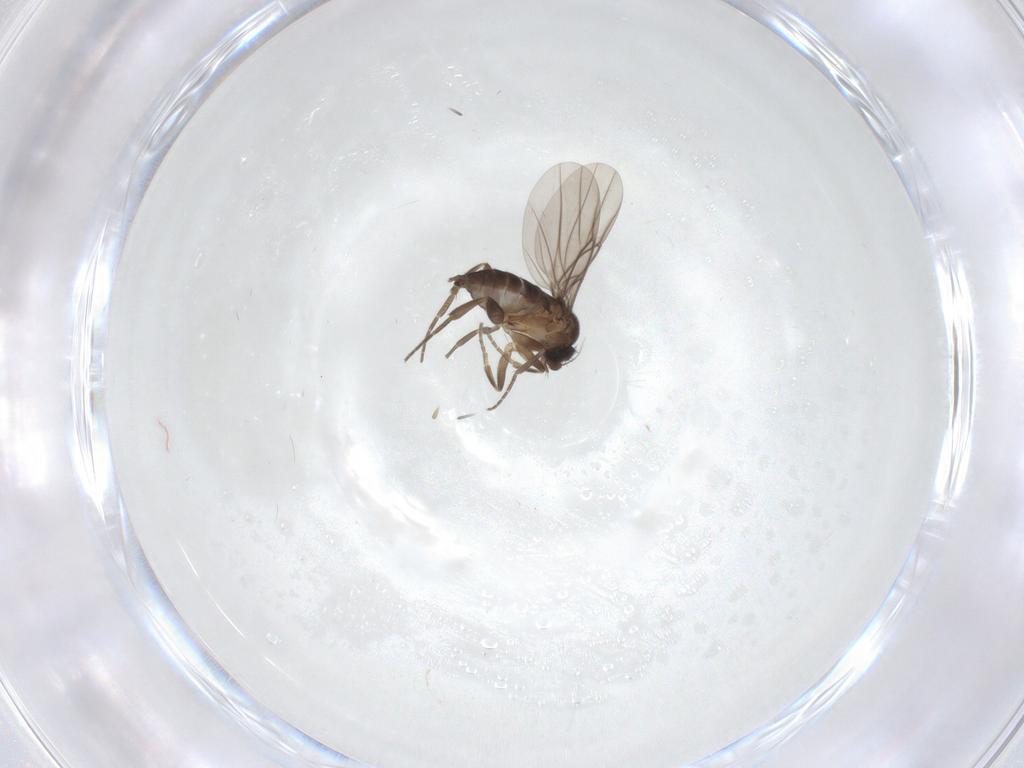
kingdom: Animalia
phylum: Arthropoda
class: Insecta
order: Diptera
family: Phoridae
